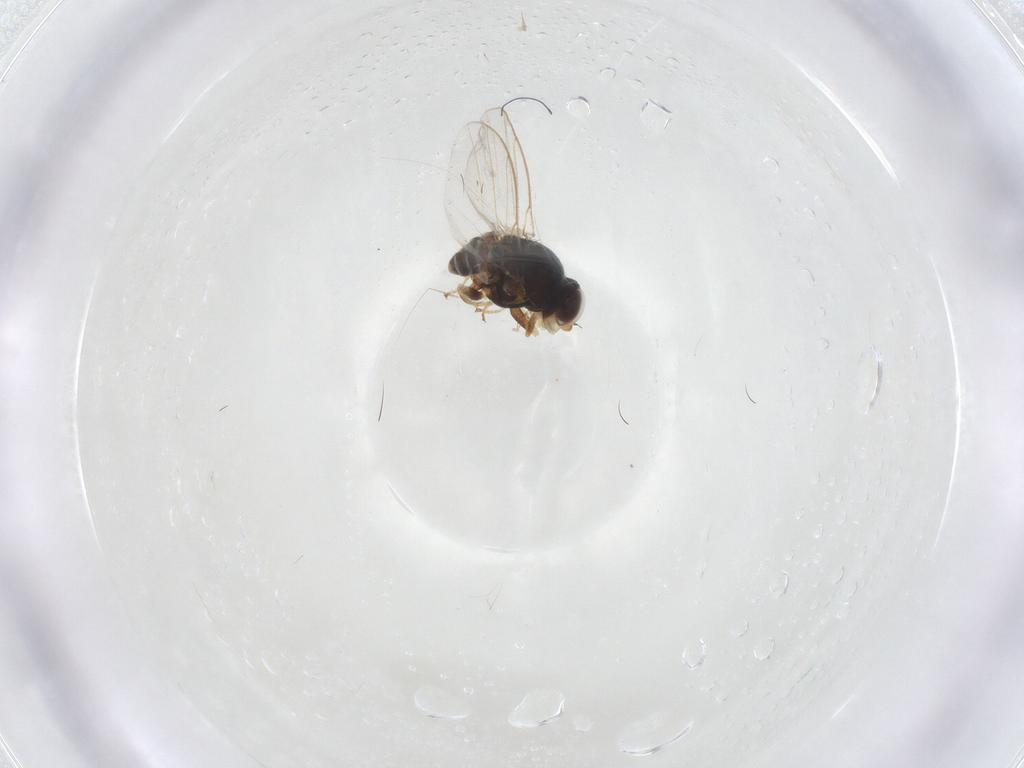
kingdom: Animalia
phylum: Arthropoda
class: Insecta
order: Diptera
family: Chloropidae
